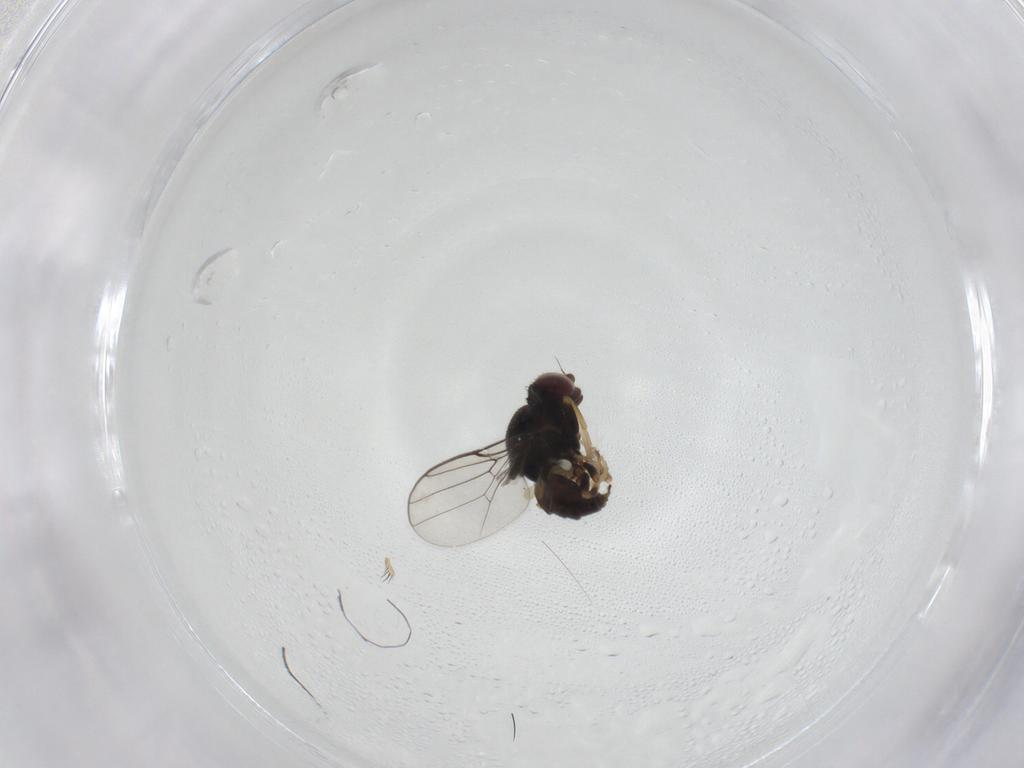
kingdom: Animalia
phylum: Arthropoda
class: Insecta
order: Diptera
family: Chloropidae
